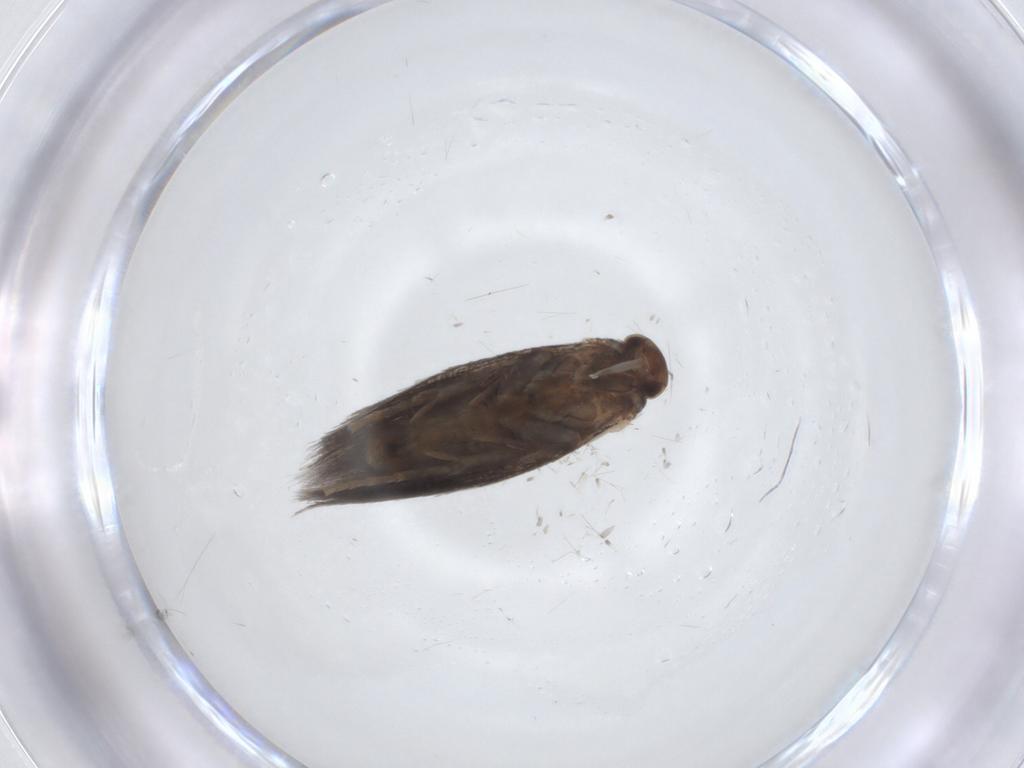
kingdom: Animalia
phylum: Arthropoda
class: Insecta
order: Lepidoptera
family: Elachistidae
